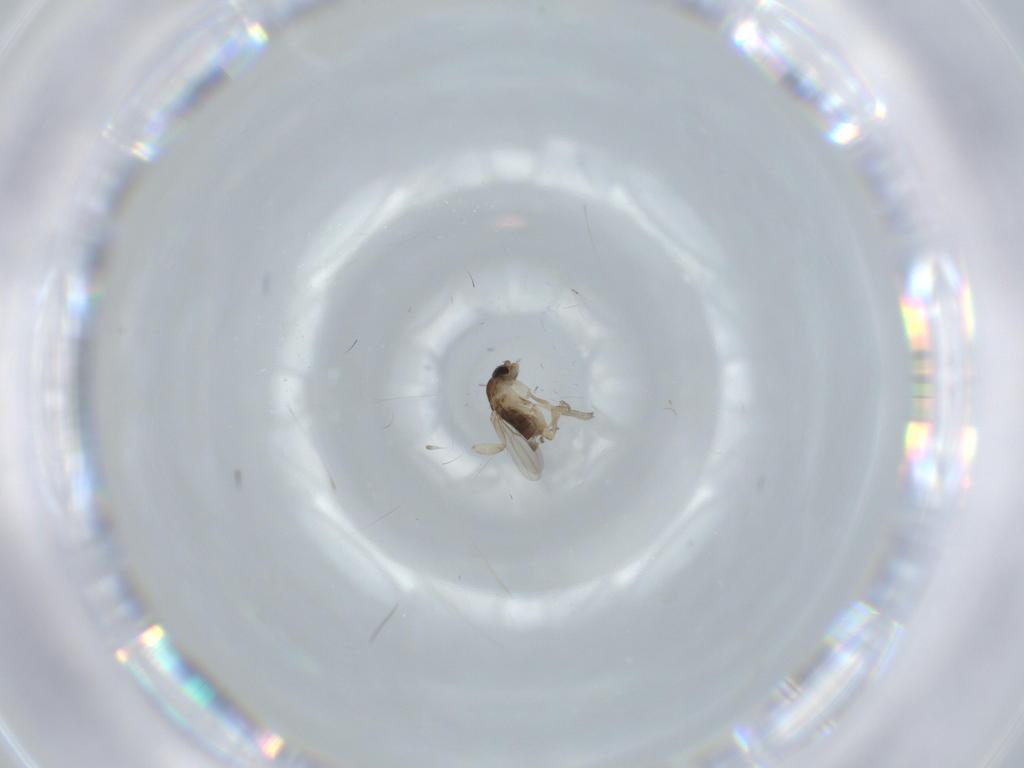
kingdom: Animalia
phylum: Arthropoda
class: Insecta
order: Diptera
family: Phoridae
